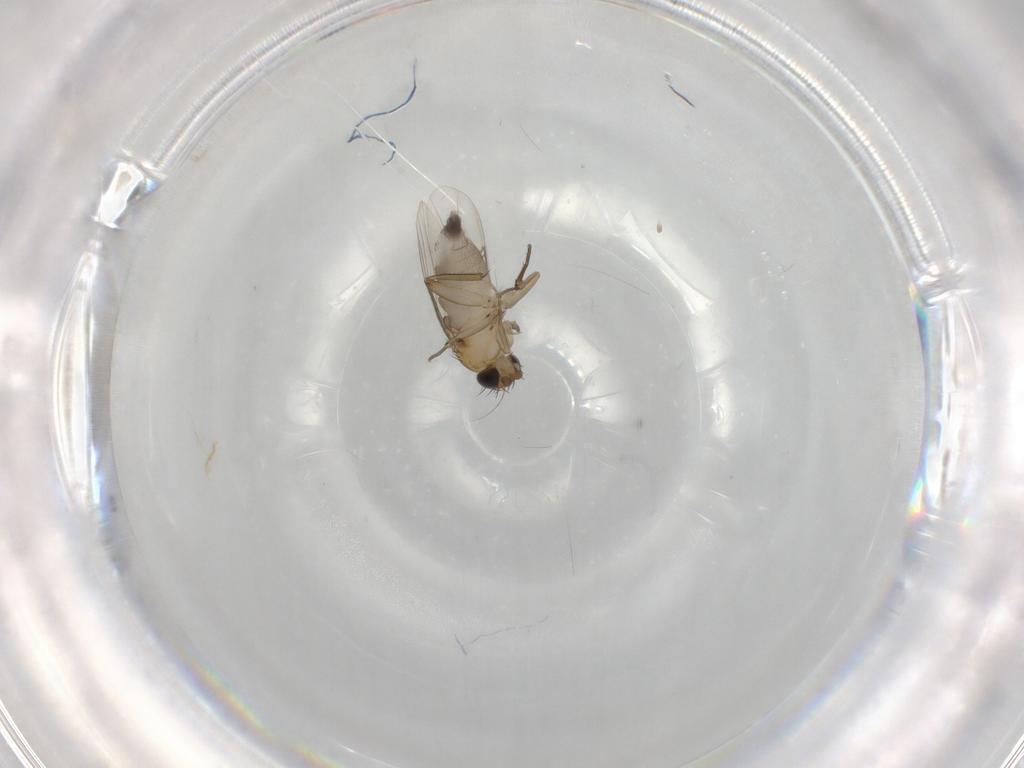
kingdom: Animalia
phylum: Arthropoda
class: Insecta
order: Diptera
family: Phoridae
